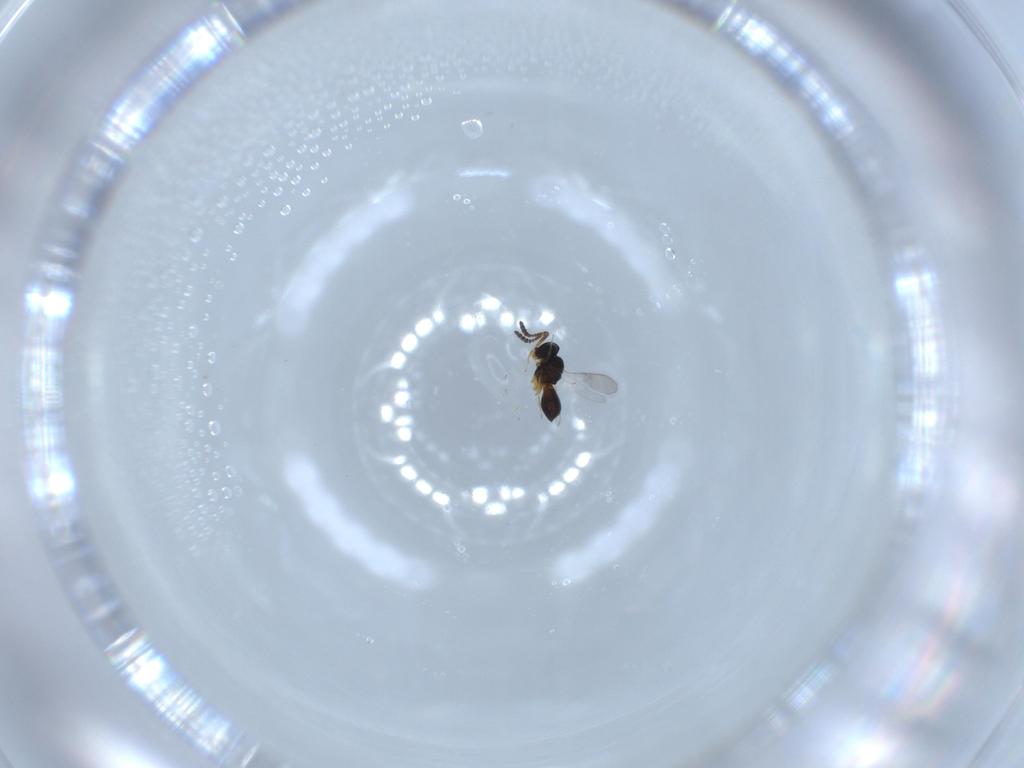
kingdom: Animalia
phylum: Arthropoda
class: Insecta
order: Hymenoptera
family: Scelionidae
